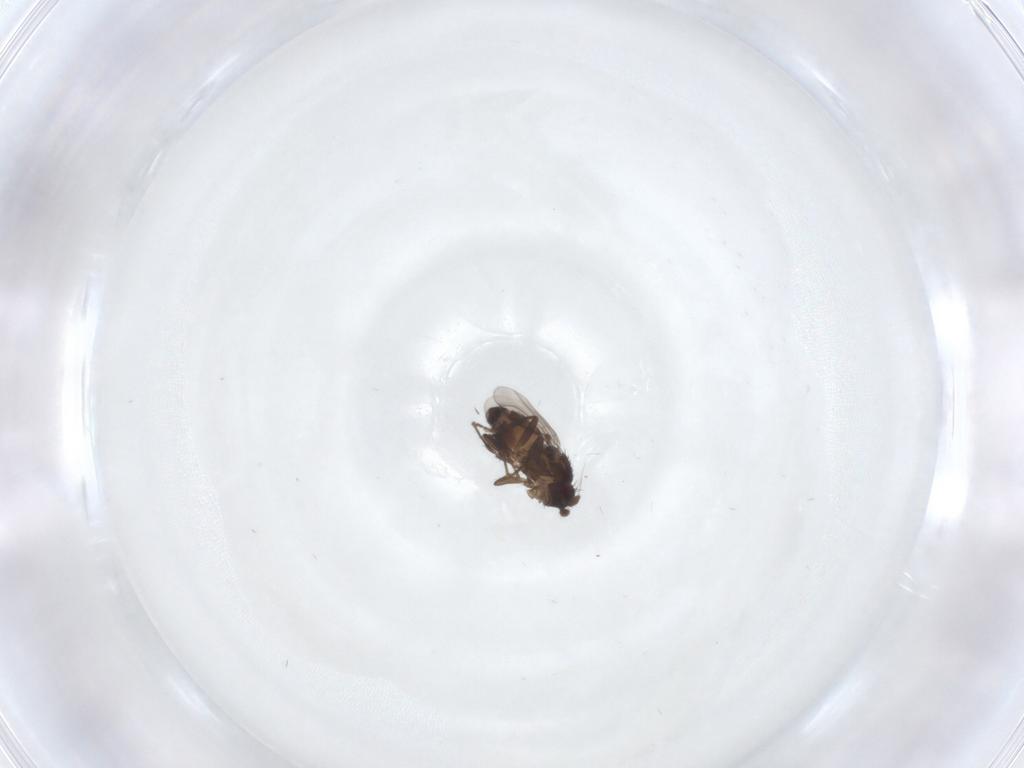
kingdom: Animalia
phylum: Arthropoda
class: Insecta
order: Diptera
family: Sphaeroceridae
